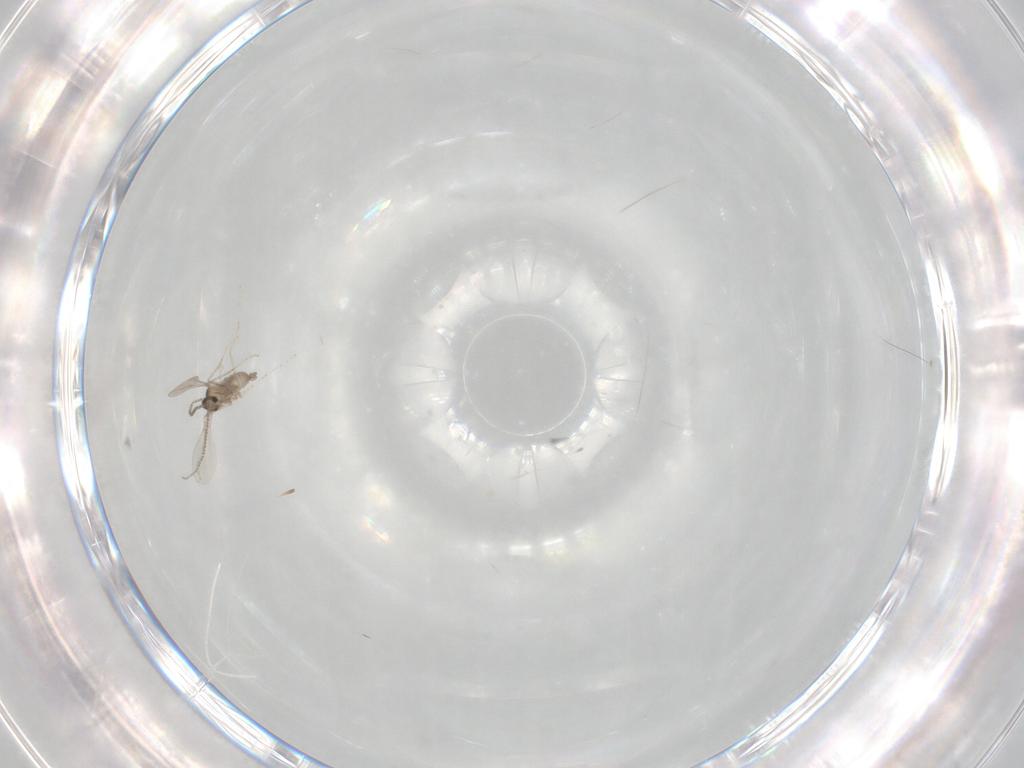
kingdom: Animalia
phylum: Arthropoda
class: Insecta
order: Diptera
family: Cecidomyiidae
